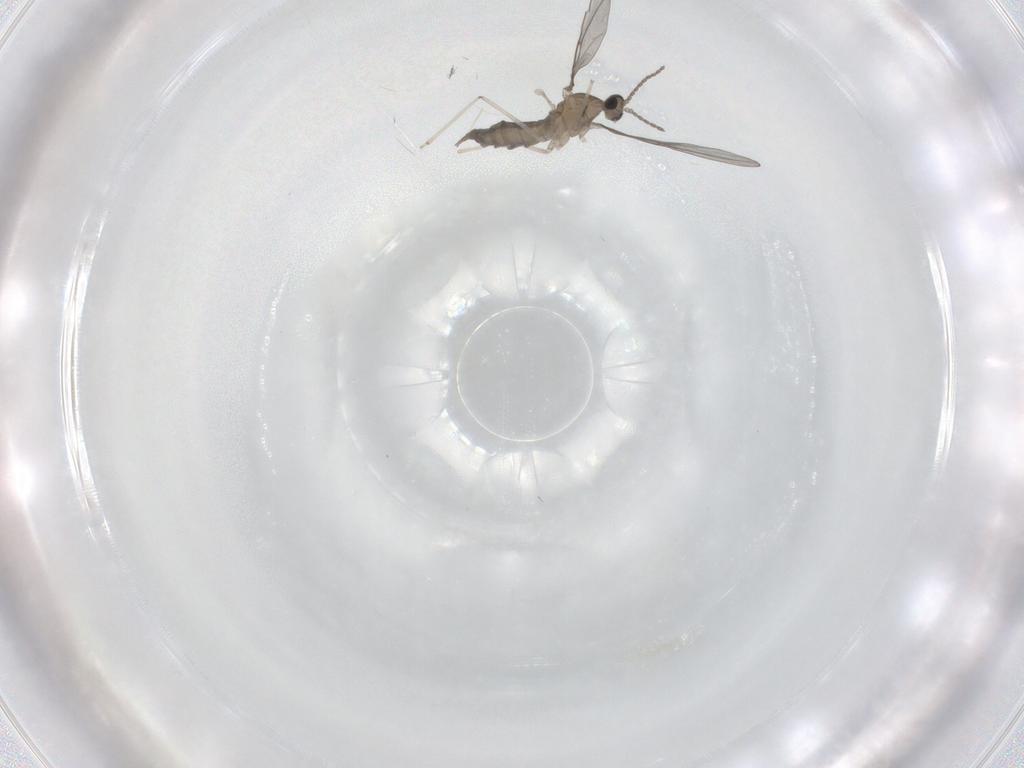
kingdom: Animalia
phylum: Arthropoda
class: Insecta
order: Diptera
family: Cecidomyiidae
